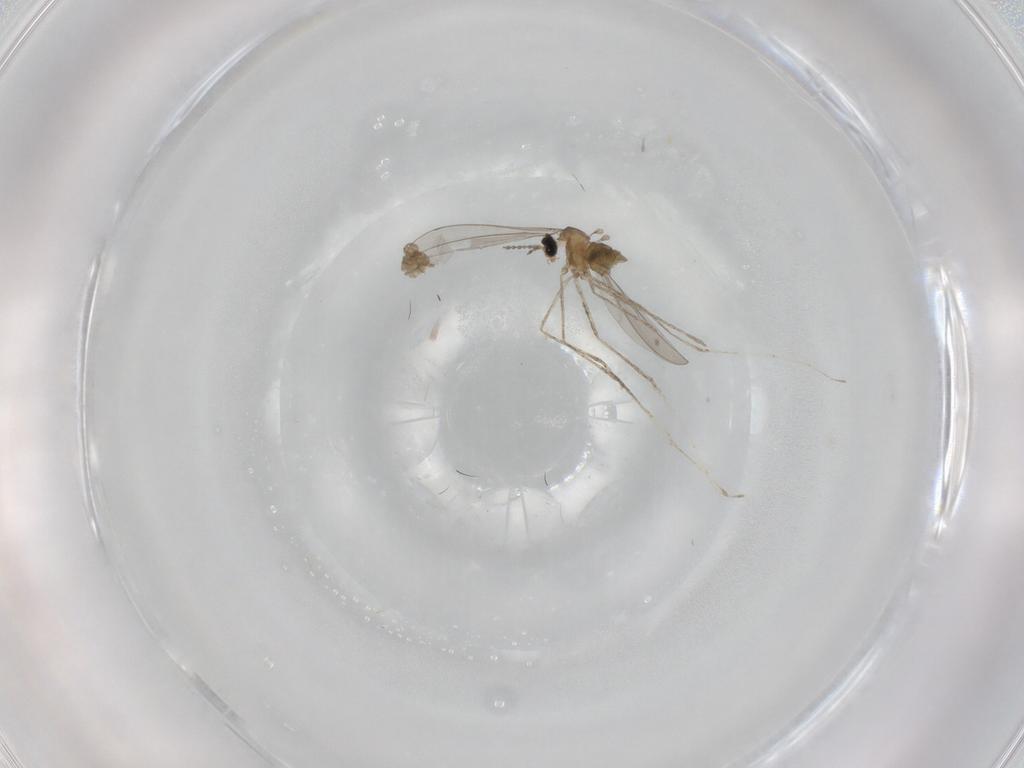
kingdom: Animalia
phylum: Arthropoda
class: Insecta
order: Diptera
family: Cecidomyiidae
